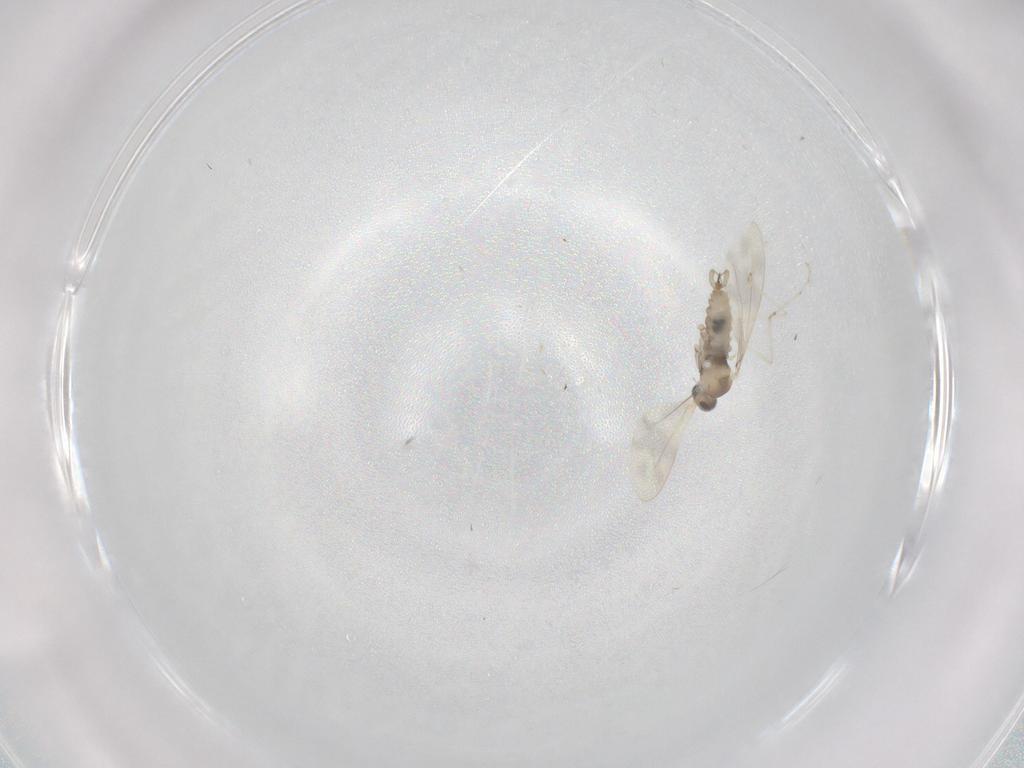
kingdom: Animalia
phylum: Arthropoda
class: Insecta
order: Diptera
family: Cecidomyiidae
